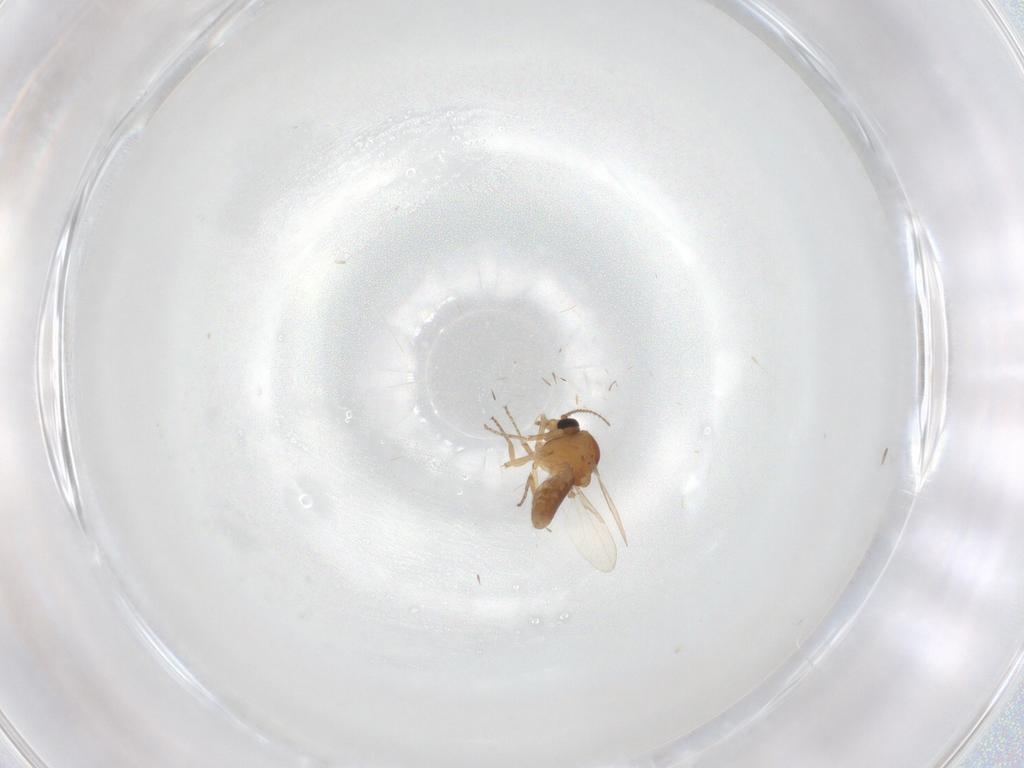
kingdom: Animalia
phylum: Arthropoda
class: Insecta
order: Diptera
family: Ceratopogonidae
